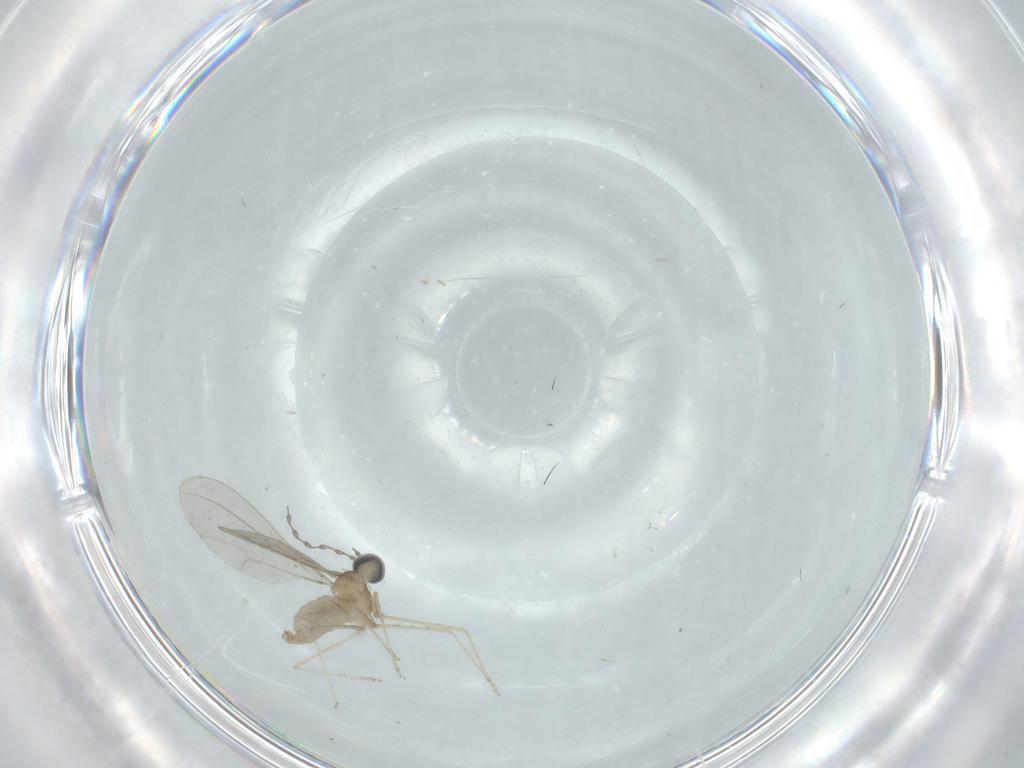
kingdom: Animalia
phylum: Arthropoda
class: Insecta
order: Diptera
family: Cecidomyiidae
